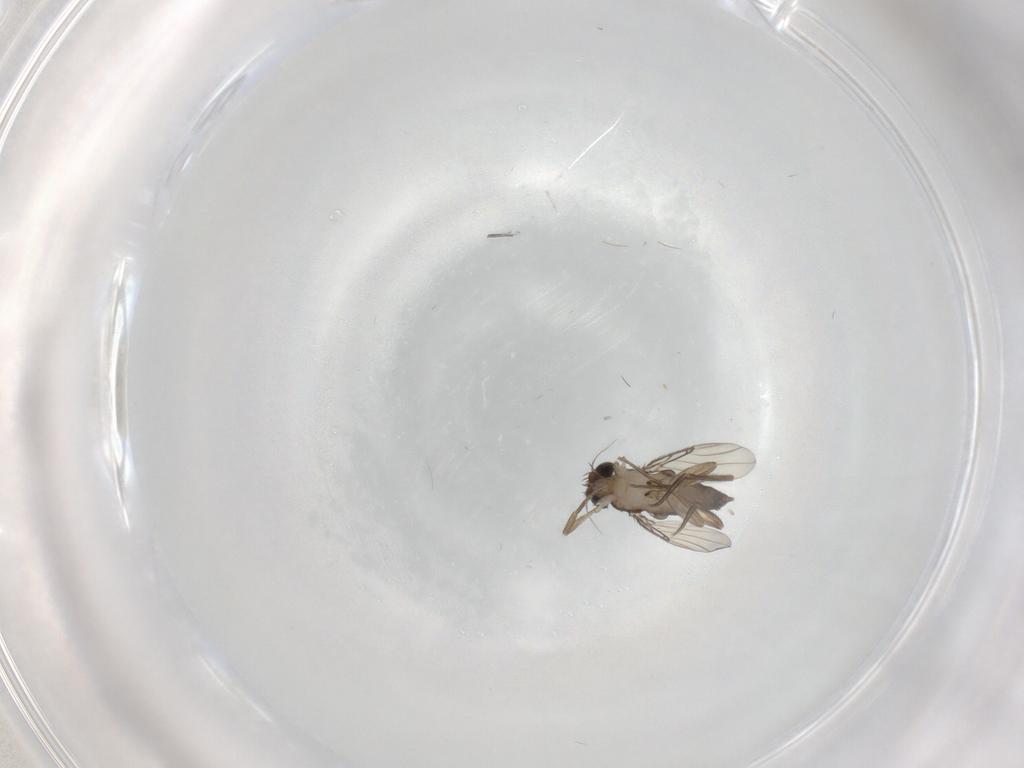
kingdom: Animalia
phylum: Arthropoda
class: Insecta
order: Diptera
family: Phoridae
